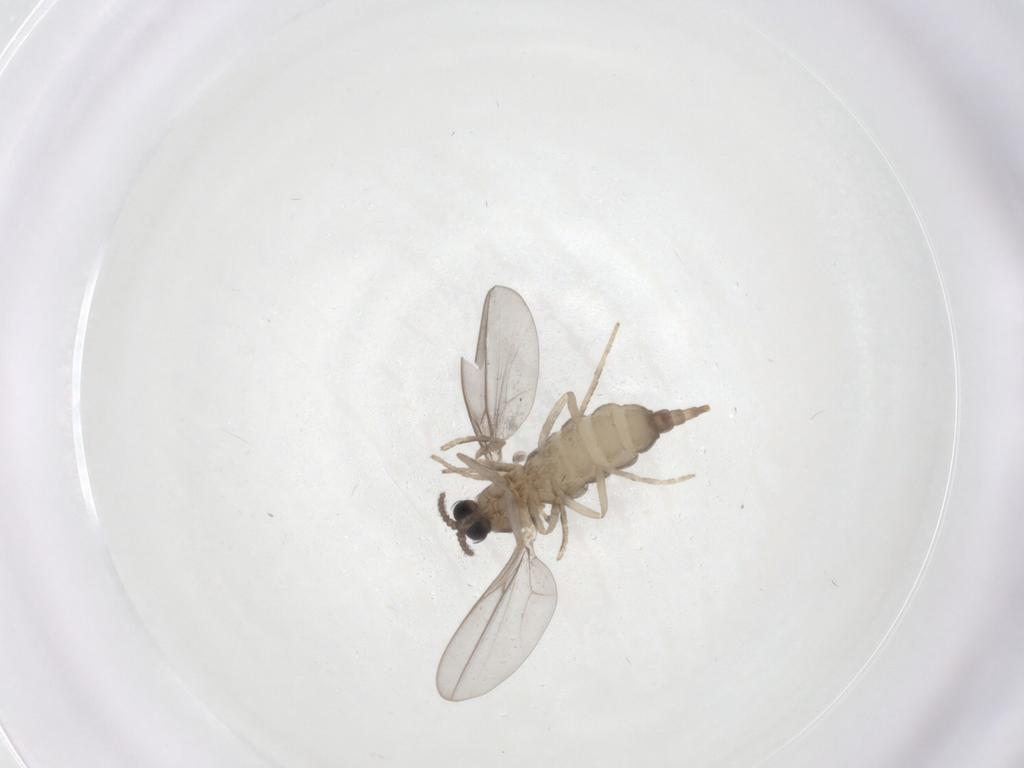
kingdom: Animalia
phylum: Arthropoda
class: Insecta
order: Diptera
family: Cecidomyiidae
